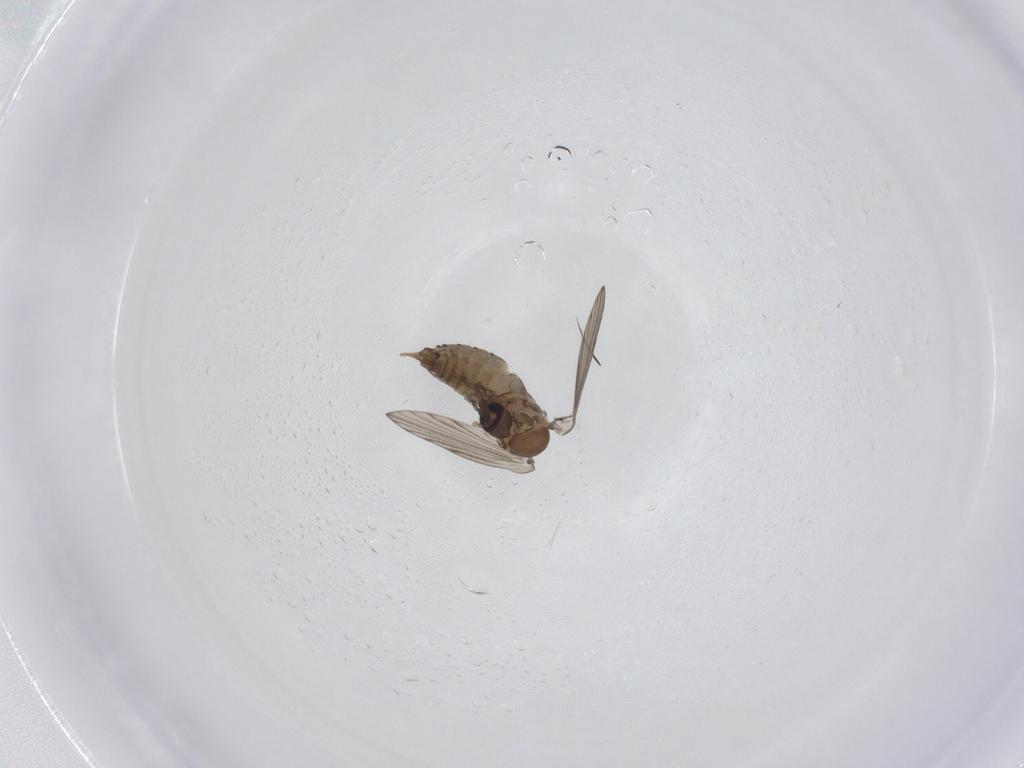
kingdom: Animalia
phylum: Arthropoda
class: Insecta
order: Diptera
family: Psychodidae
